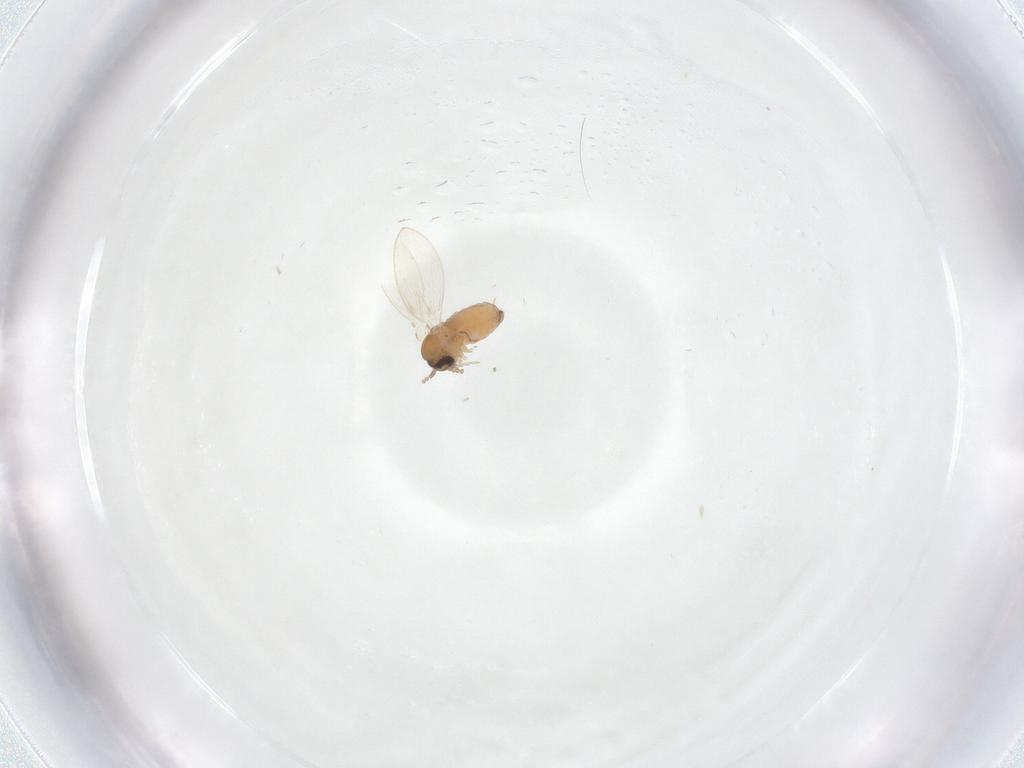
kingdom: Animalia
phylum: Arthropoda
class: Insecta
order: Diptera
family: Psychodidae
